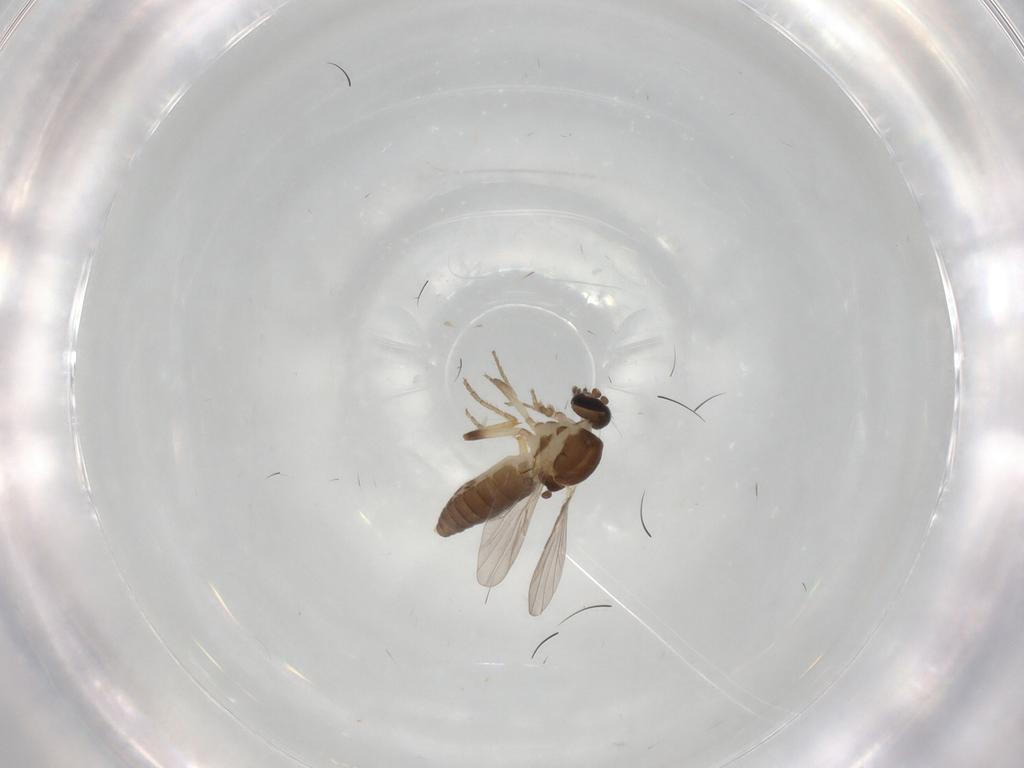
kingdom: Animalia
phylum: Arthropoda
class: Insecta
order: Diptera
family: Ceratopogonidae
